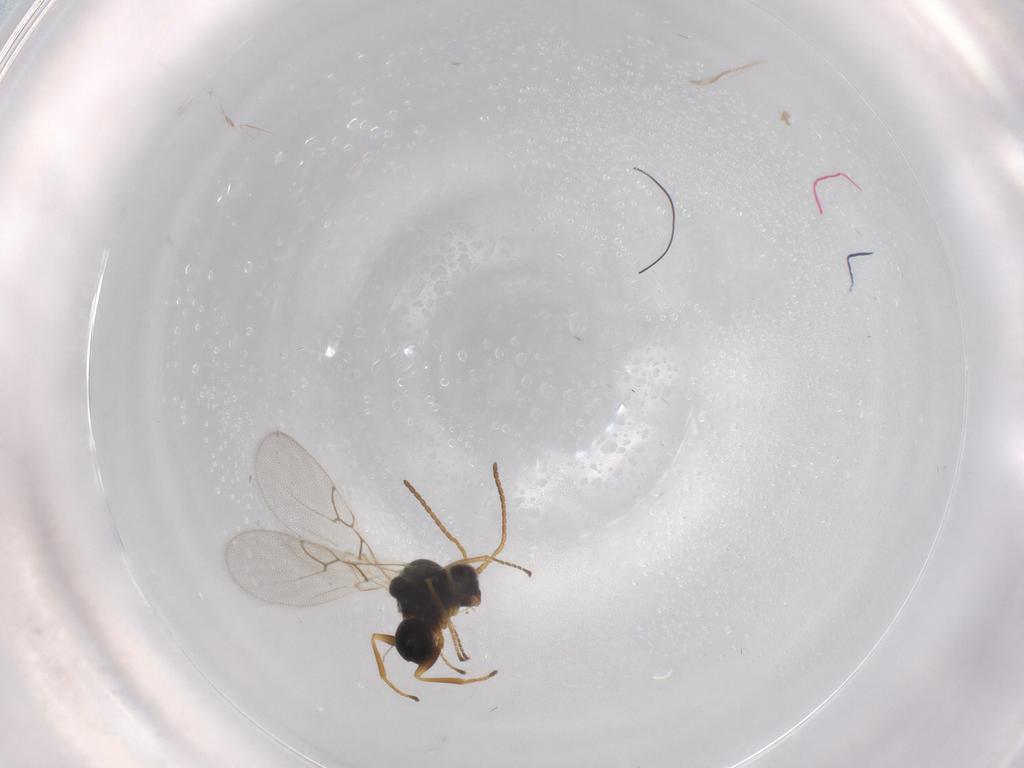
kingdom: Animalia
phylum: Arthropoda
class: Insecta
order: Hymenoptera
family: Figitidae
